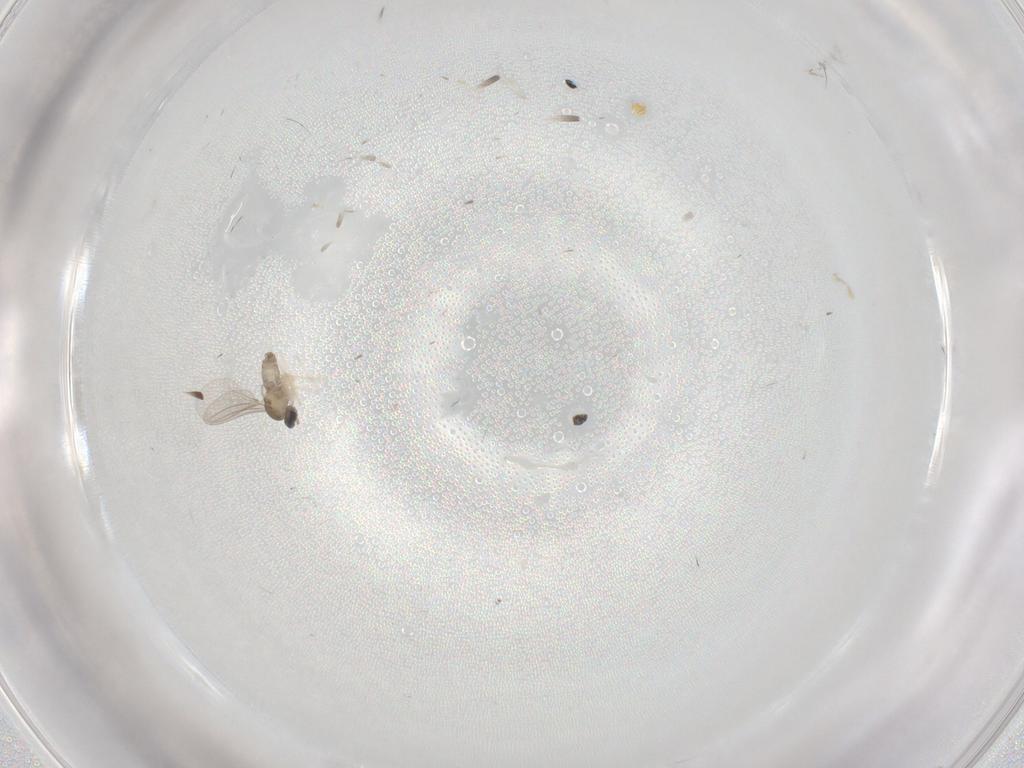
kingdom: Animalia
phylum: Arthropoda
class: Insecta
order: Diptera
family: Cecidomyiidae
